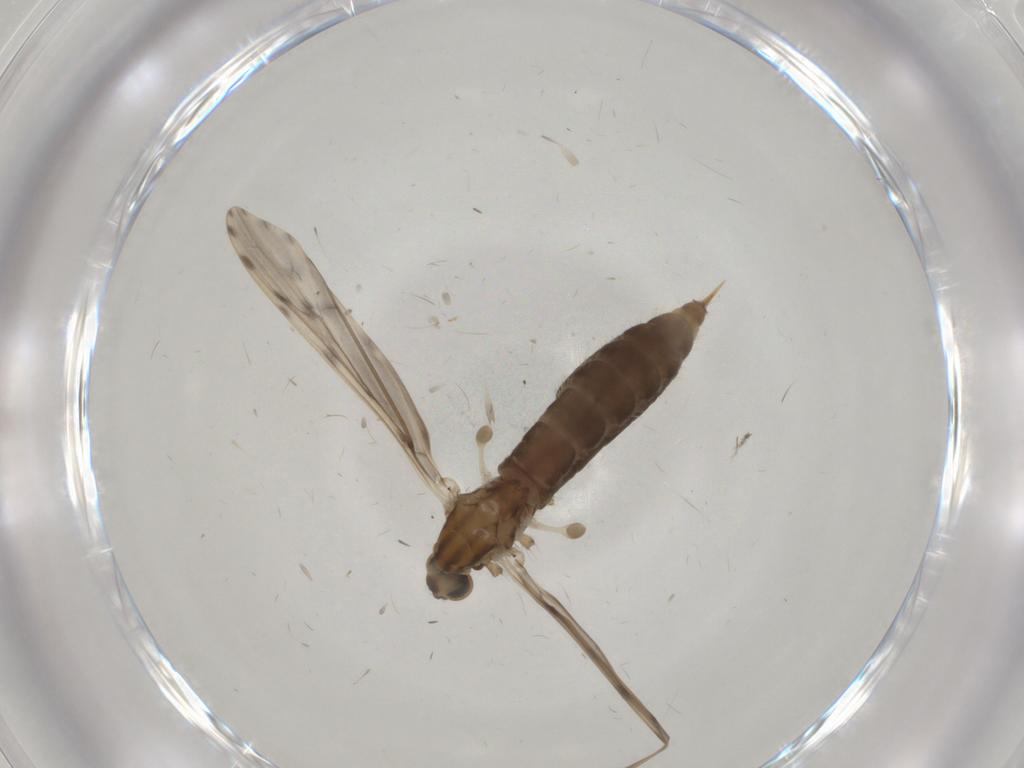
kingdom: Animalia
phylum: Arthropoda
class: Insecta
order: Diptera
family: Limoniidae
